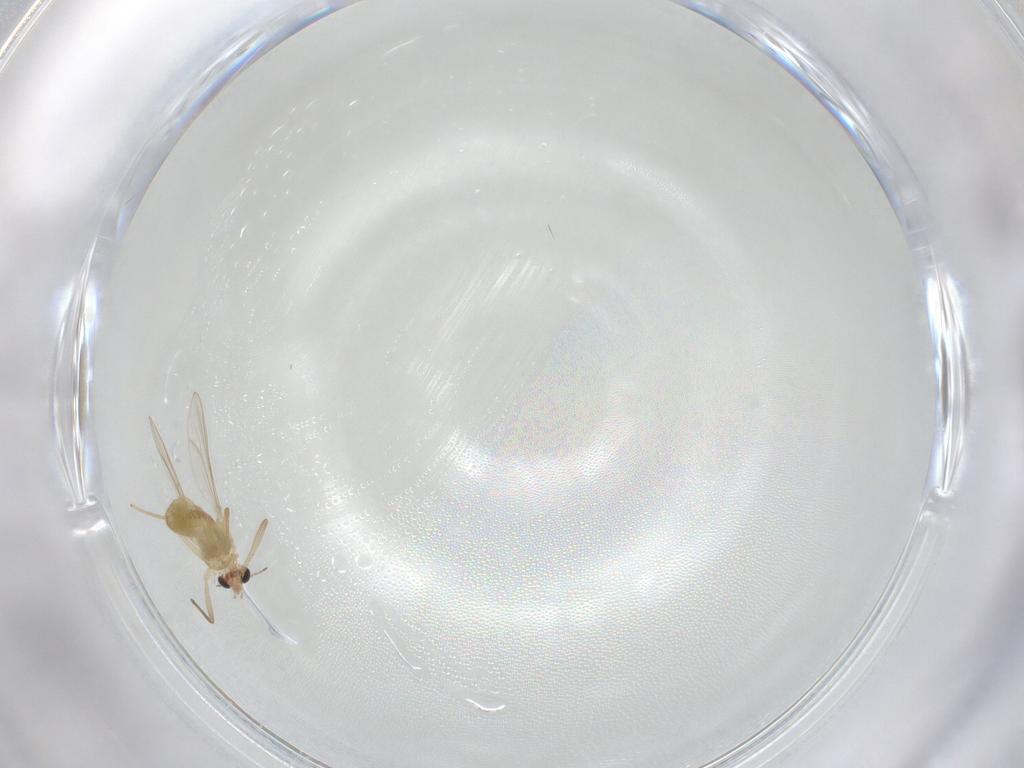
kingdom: Animalia
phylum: Arthropoda
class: Insecta
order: Diptera
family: Chironomidae
